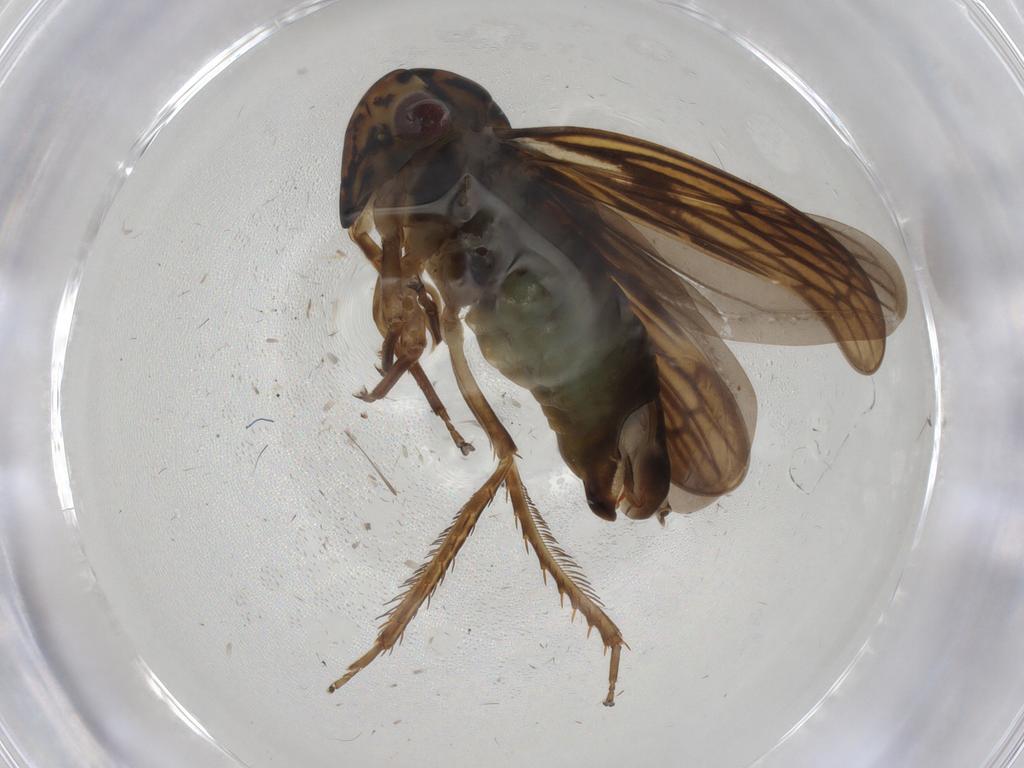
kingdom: Animalia
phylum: Arthropoda
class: Insecta
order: Hemiptera
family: Cicadellidae
